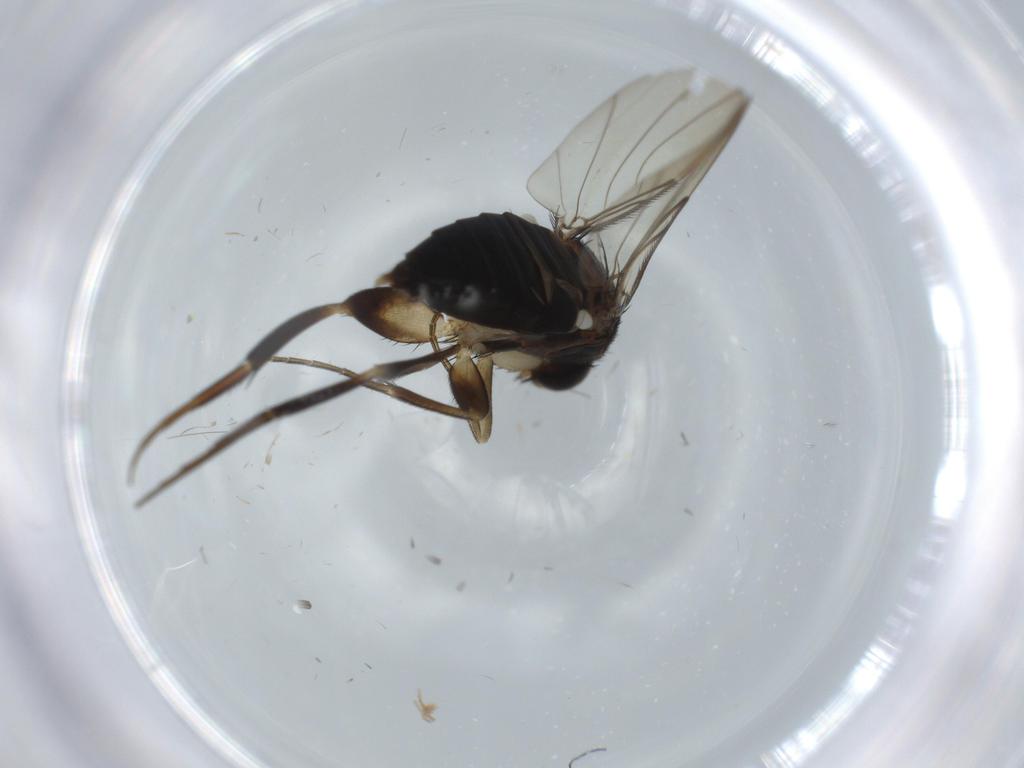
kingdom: Animalia
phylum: Arthropoda
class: Insecta
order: Diptera
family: Phoridae
